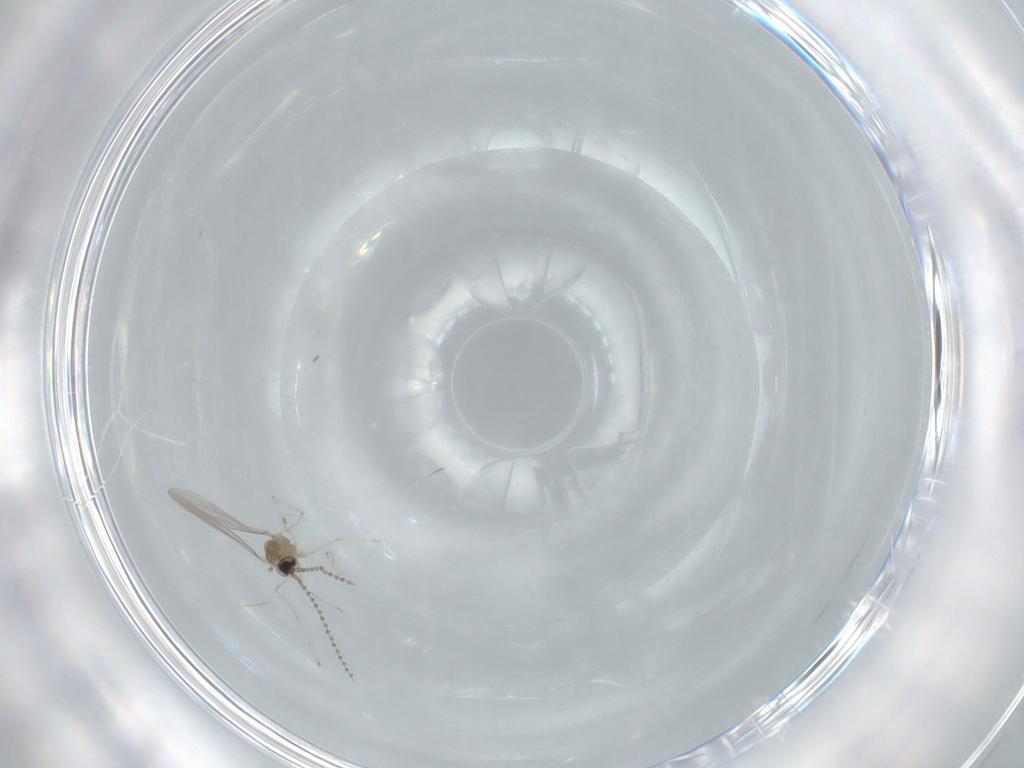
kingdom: Animalia
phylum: Arthropoda
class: Insecta
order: Diptera
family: Cecidomyiidae
